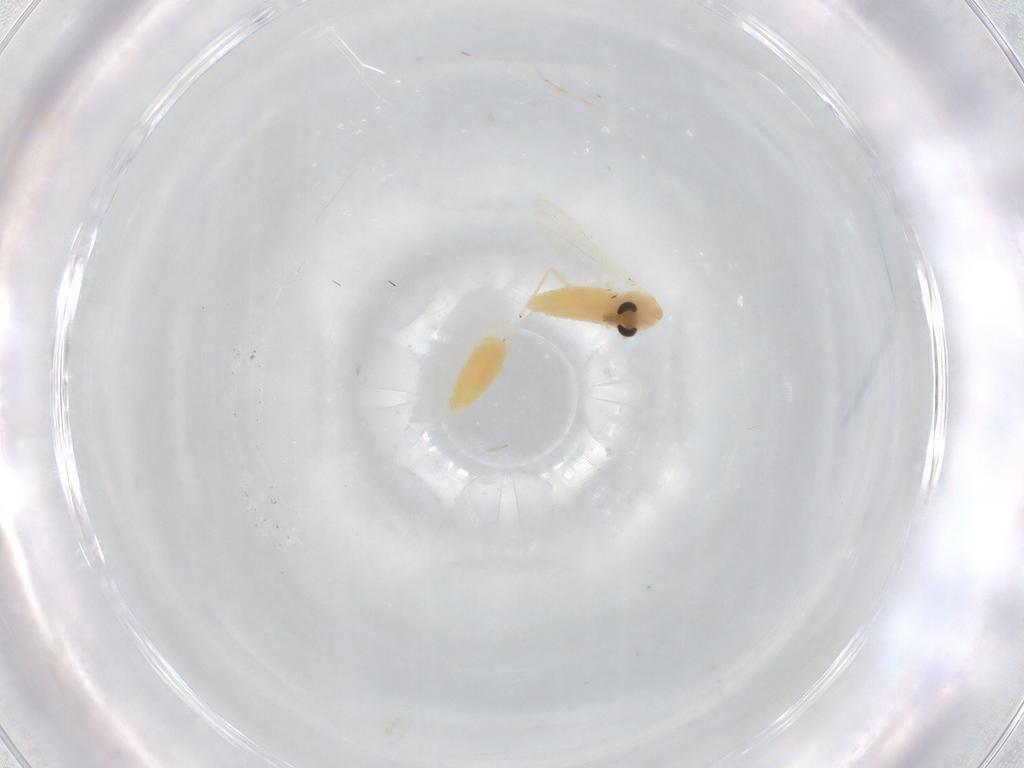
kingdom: Animalia
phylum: Arthropoda
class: Insecta
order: Diptera
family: Chironomidae
